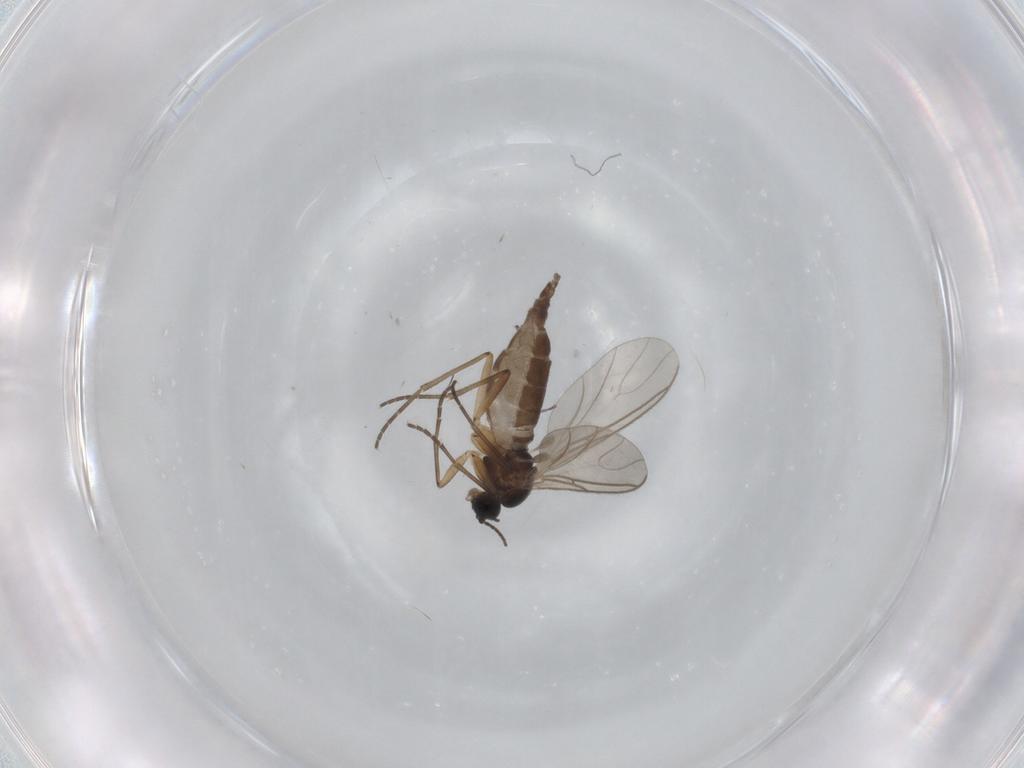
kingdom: Animalia
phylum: Arthropoda
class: Insecta
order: Diptera
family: Sciaridae
